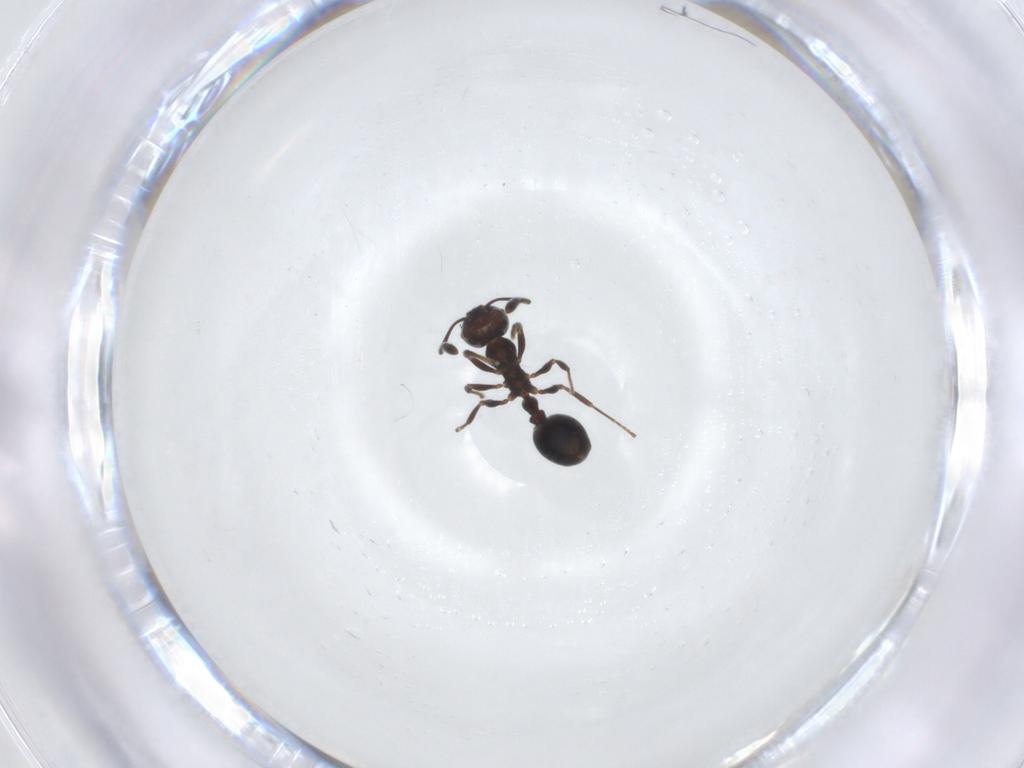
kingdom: Animalia
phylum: Arthropoda
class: Insecta
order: Hymenoptera
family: Formicidae
